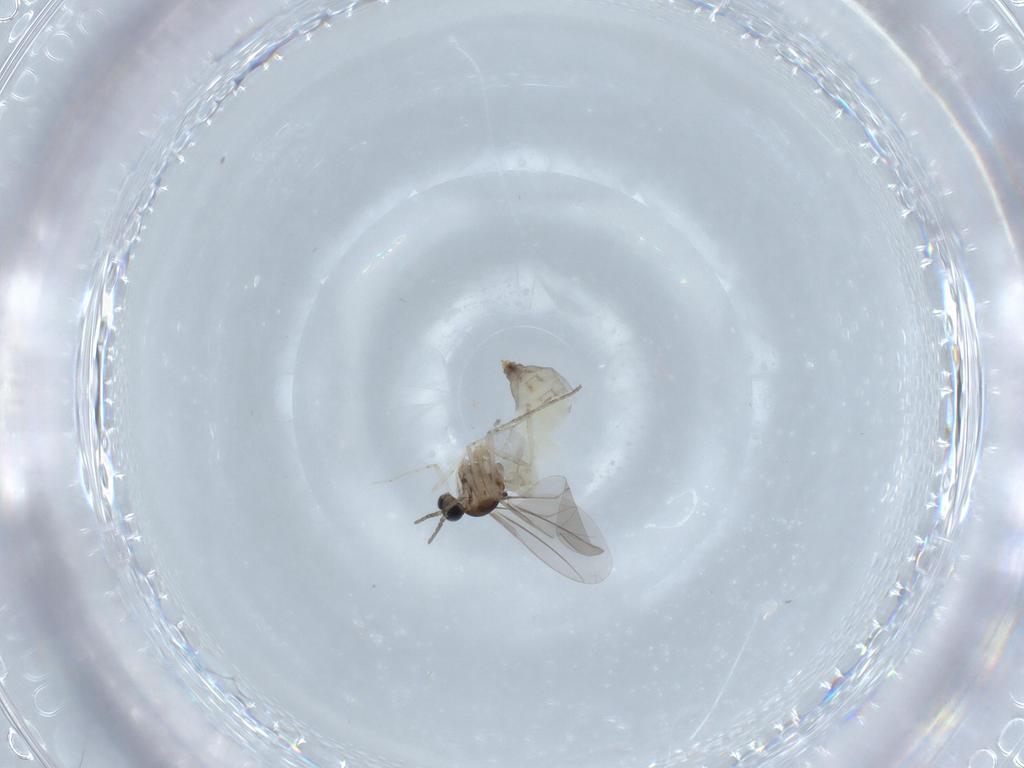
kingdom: Animalia
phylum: Arthropoda
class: Insecta
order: Diptera
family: Cecidomyiidae
